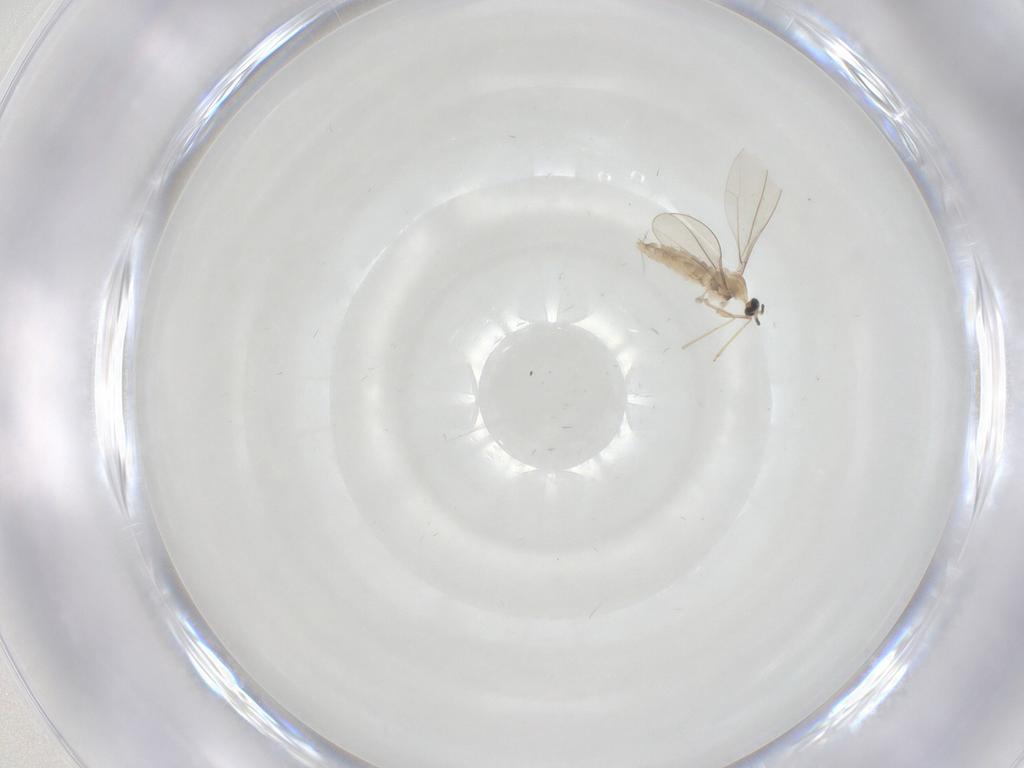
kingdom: Animalia
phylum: Arthropoda
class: Insecta
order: Diptera
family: Cecidomyiidae
